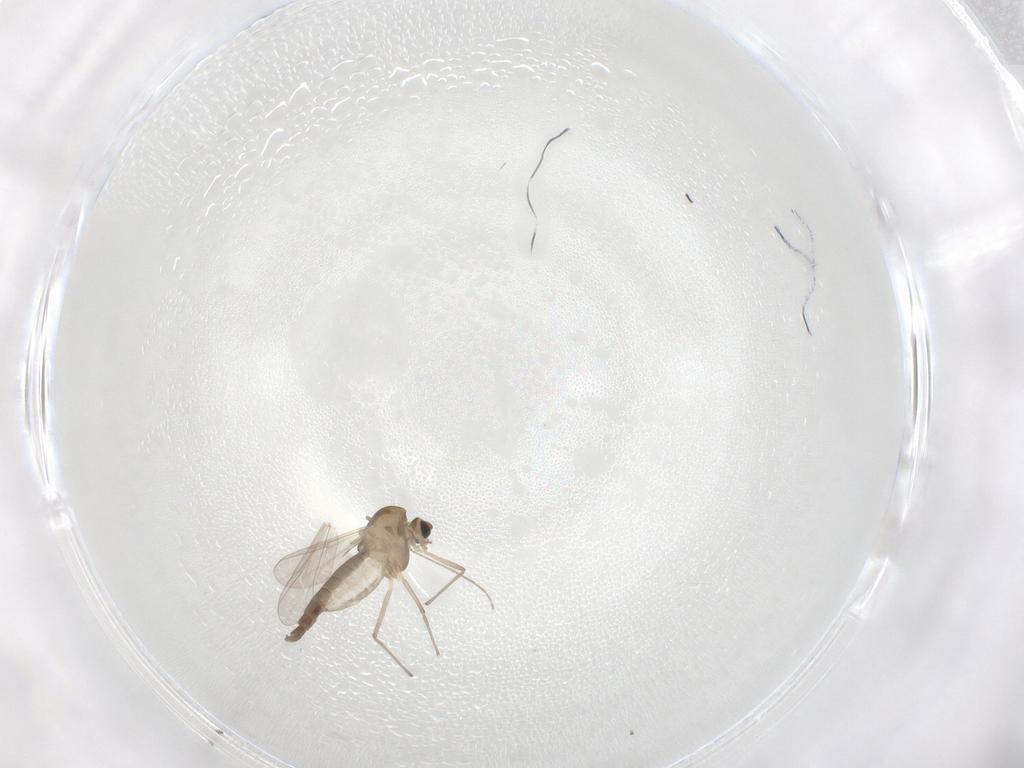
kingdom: Animalia
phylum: Arthropoda
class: Insecta
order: Diptera
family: Chironomidae
